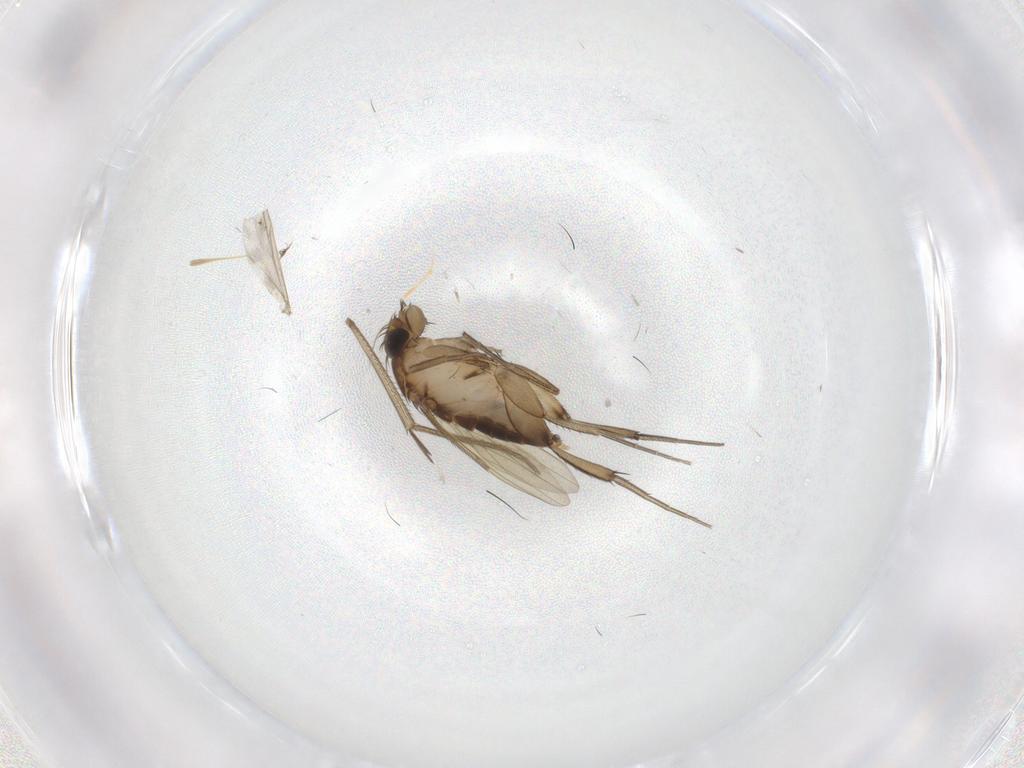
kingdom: Animalia
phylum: Arthropoda
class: Insecta
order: Diptera
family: Phoridae
